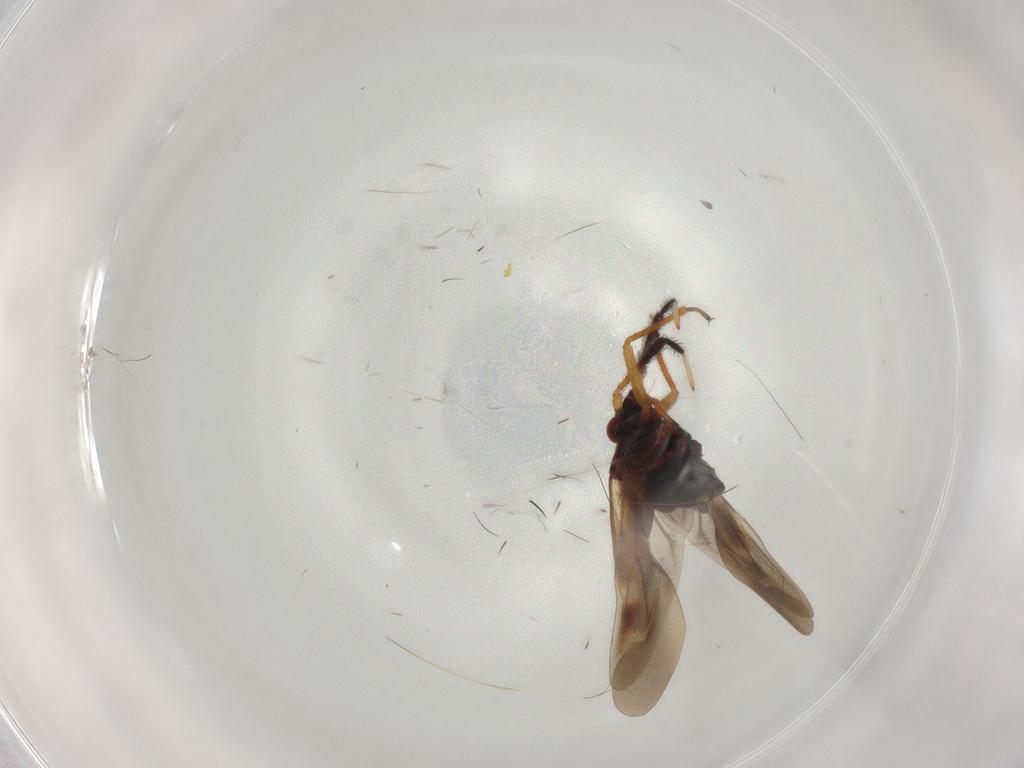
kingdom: Animalia
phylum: Arthropoda
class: Insecta
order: Hemiptera
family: Miridae
